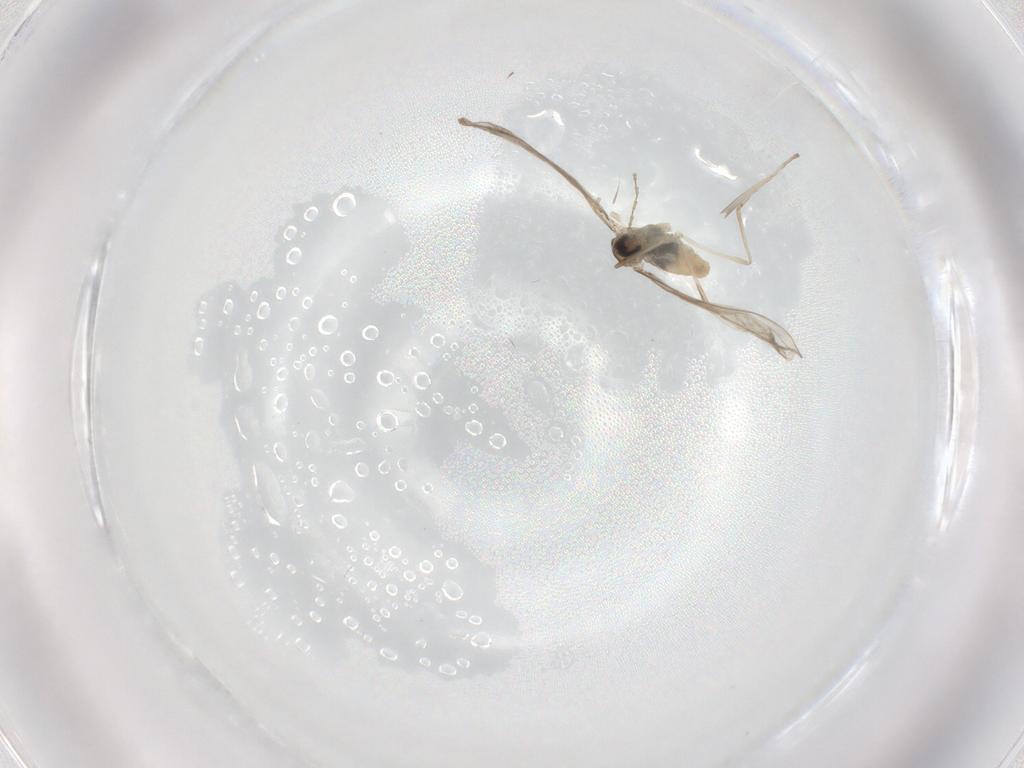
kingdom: Animalia
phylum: Arthropoda
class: Insecta
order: Diptera
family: Cecidomyiidae
